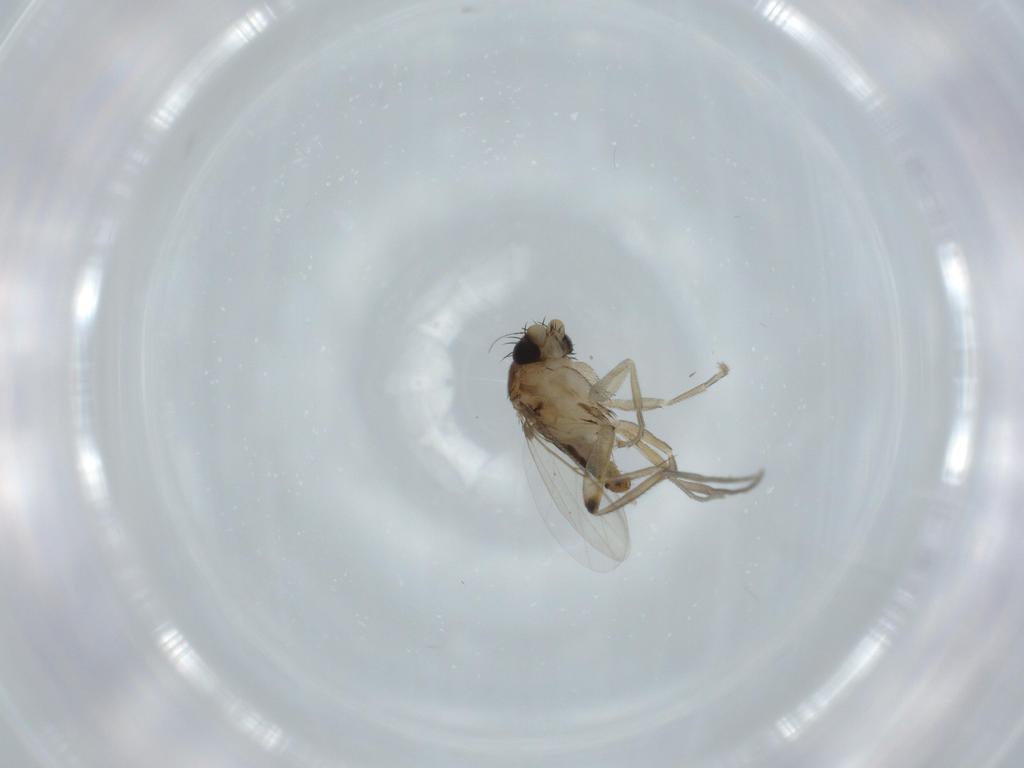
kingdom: Animalia
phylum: Arthropoda
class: Insecta
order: Diptera
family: Phoridae
